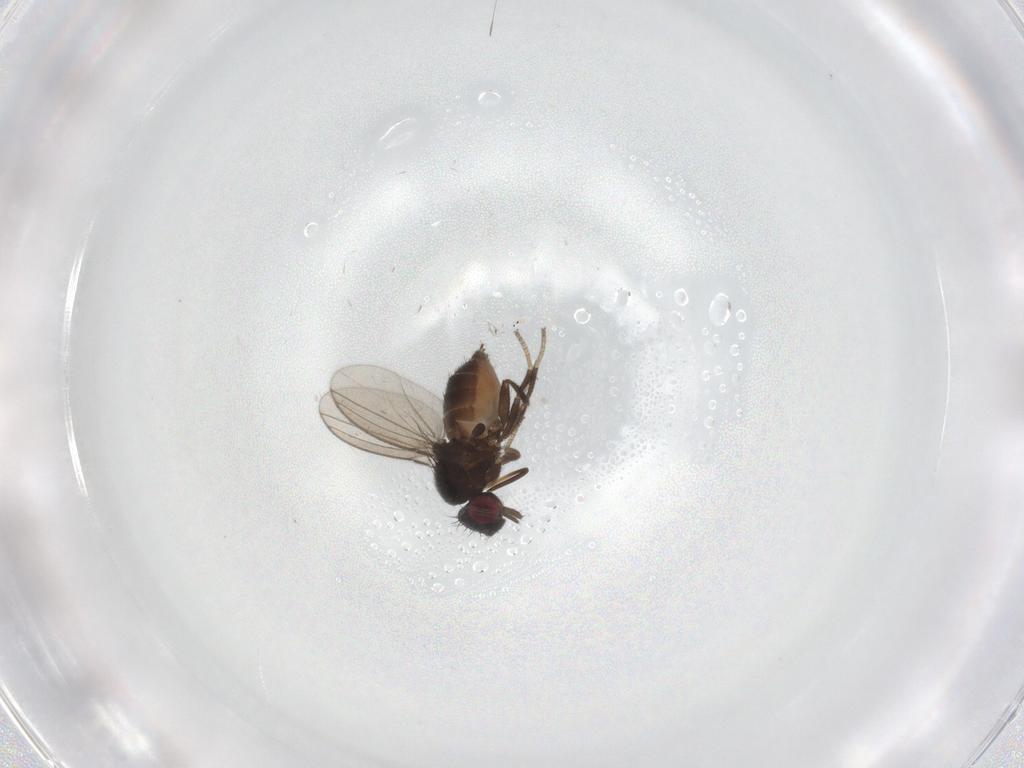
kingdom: Animalia
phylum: Arthropoda
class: Insecta
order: Diptera
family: Milichiidae
